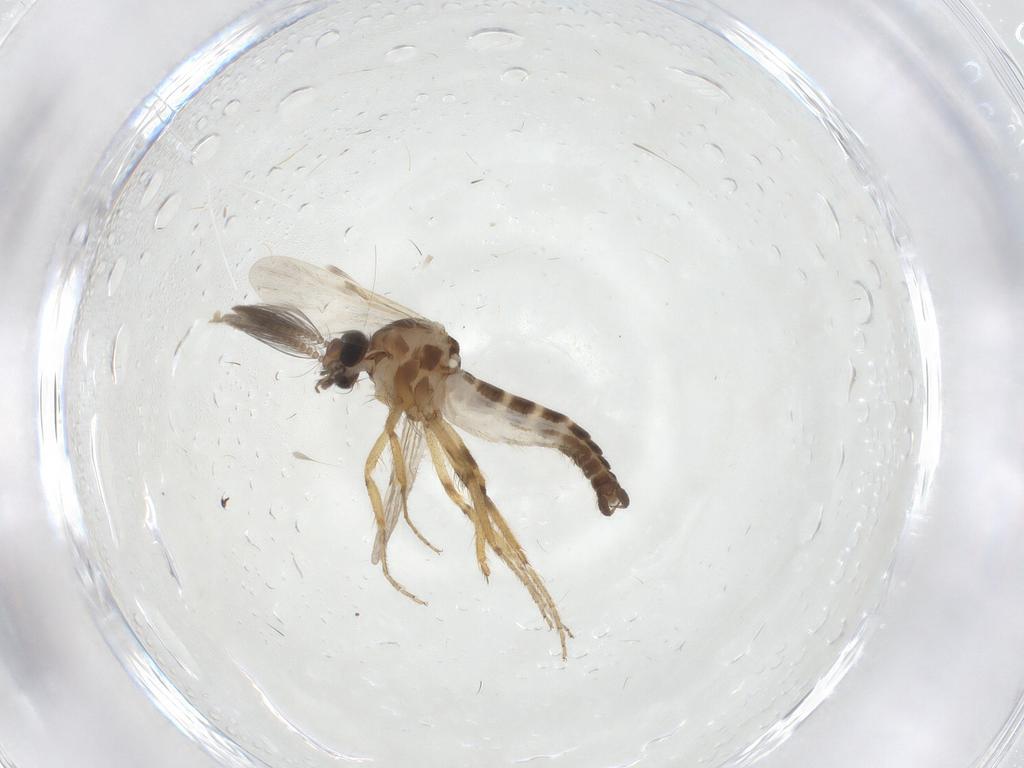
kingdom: Animalia
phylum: Arthropoda
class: Insecta
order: Diptera
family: Ceratopogonidae
